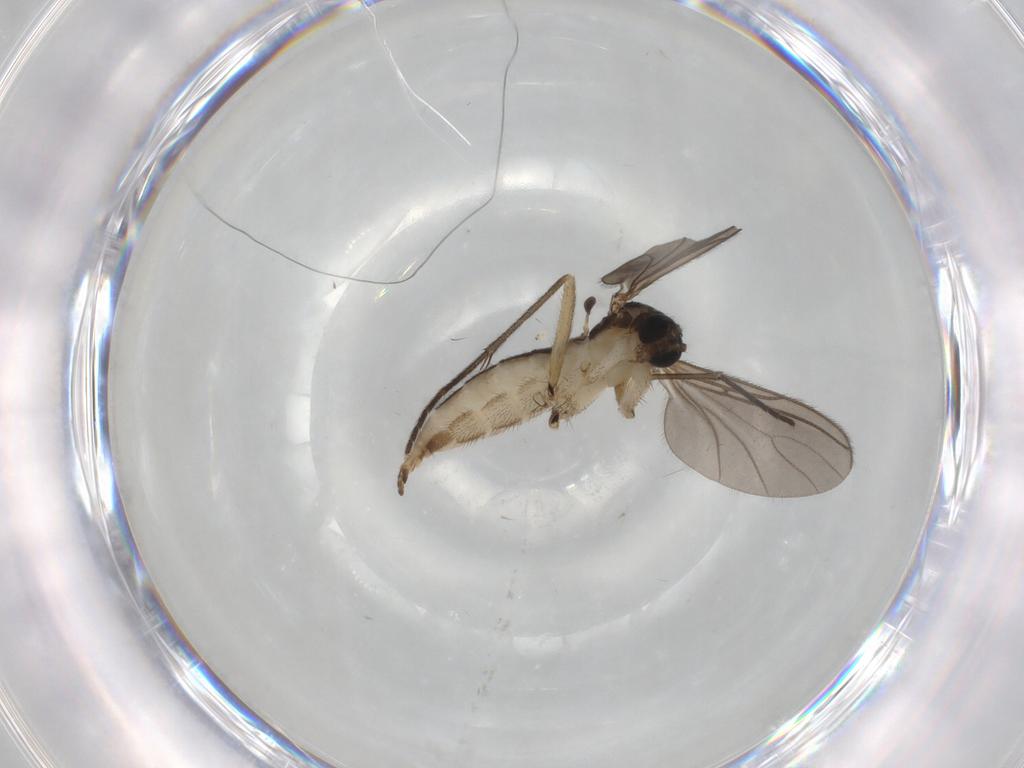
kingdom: Animalia
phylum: Arthropoda
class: Insecta
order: Diptera
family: Sciaridae
